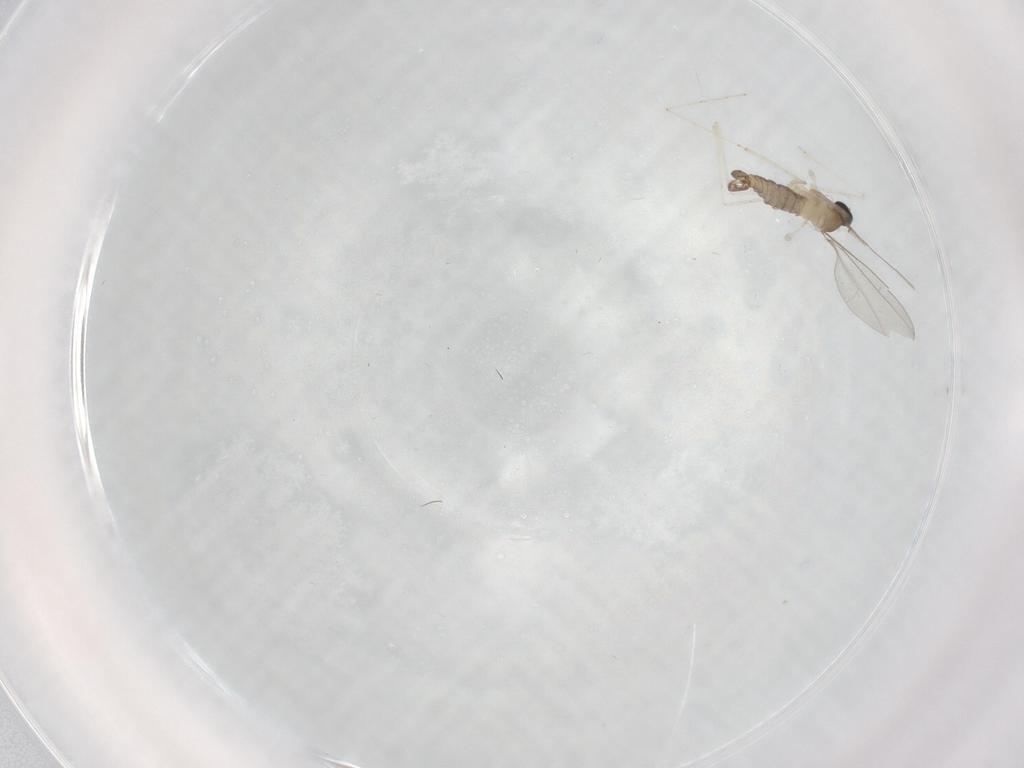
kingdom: Animalia
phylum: Arthropoda
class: Insecta
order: Diptera
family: Cecidomyiidae
